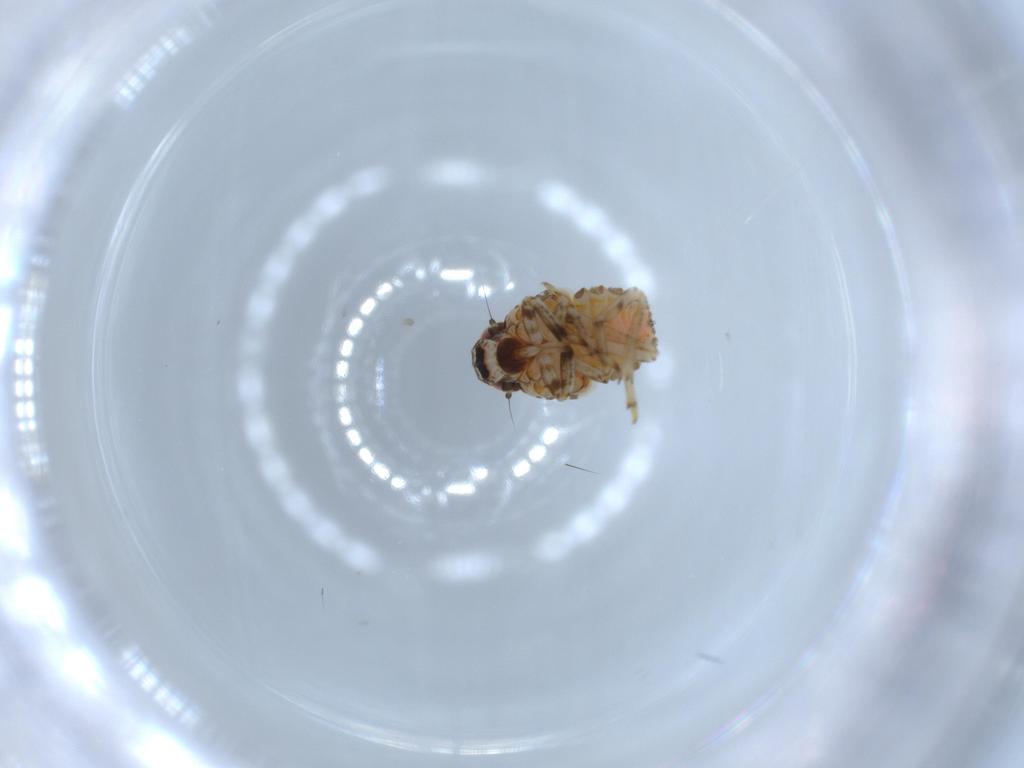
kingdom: Animalia
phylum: Arthropoda
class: Insecta
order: Hemiptera
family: Issidae
